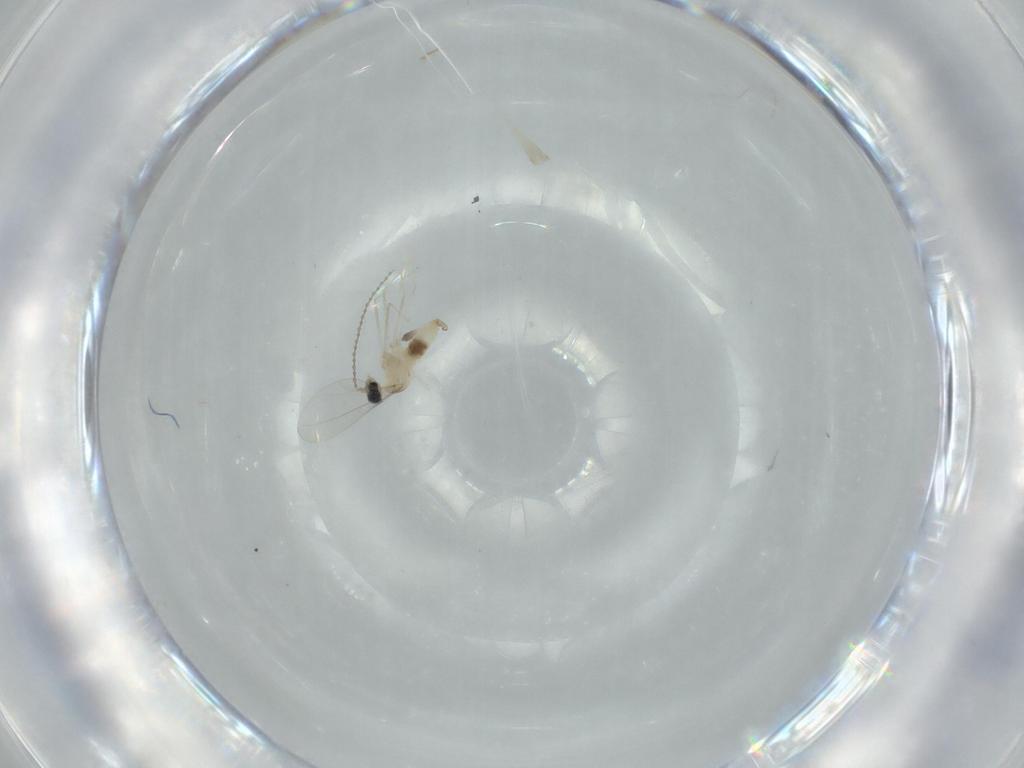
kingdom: Animalia
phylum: Arthropoda
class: Insecta
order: Diptera
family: Cecidomyiidae
